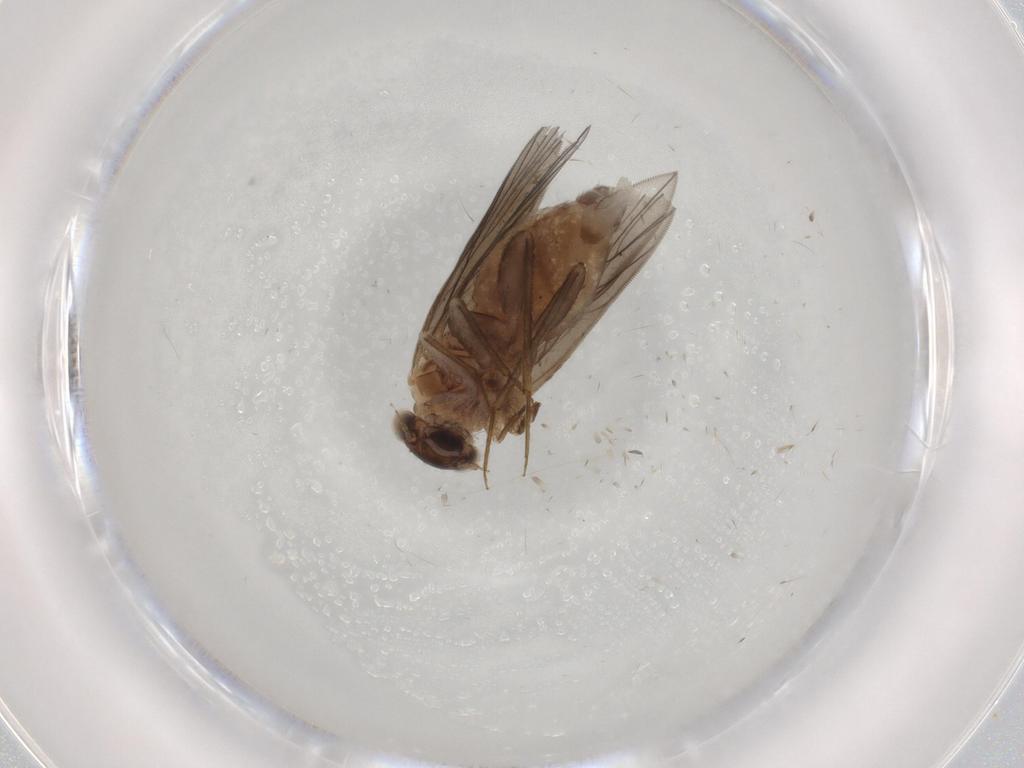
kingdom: Animalia
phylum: Arthropoda
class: Insecta
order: Psocodea
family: Lepidopsocidae
